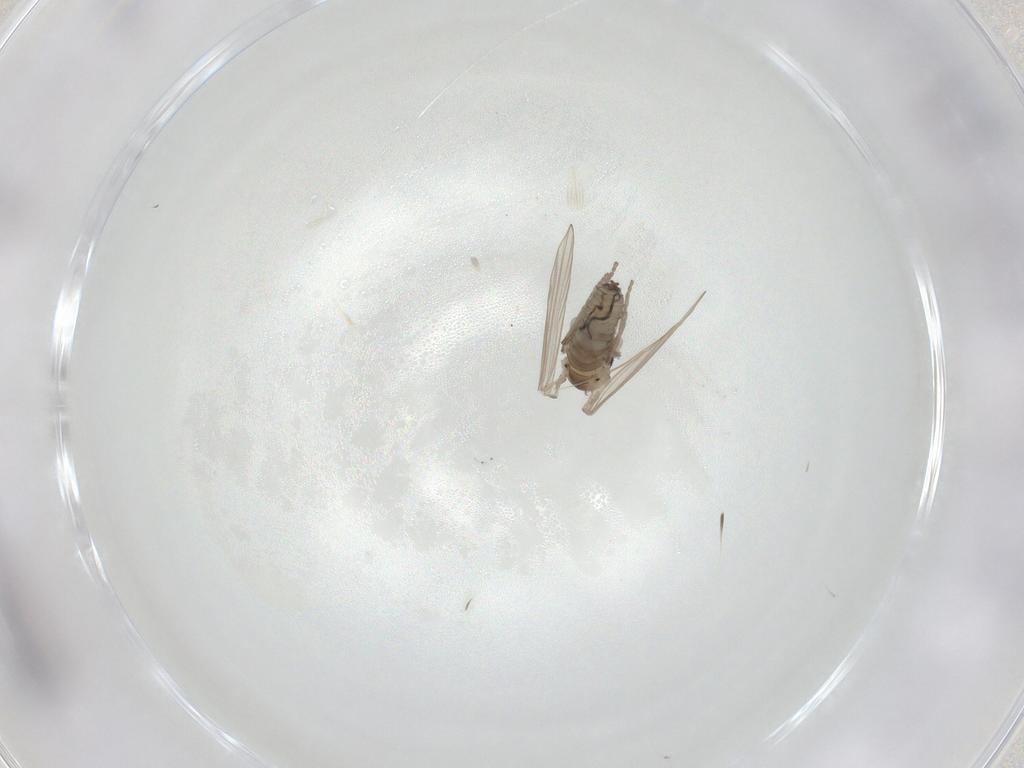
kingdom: Animalia
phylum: Arthropoda
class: Insecta
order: Diptera
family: Psychodidae
